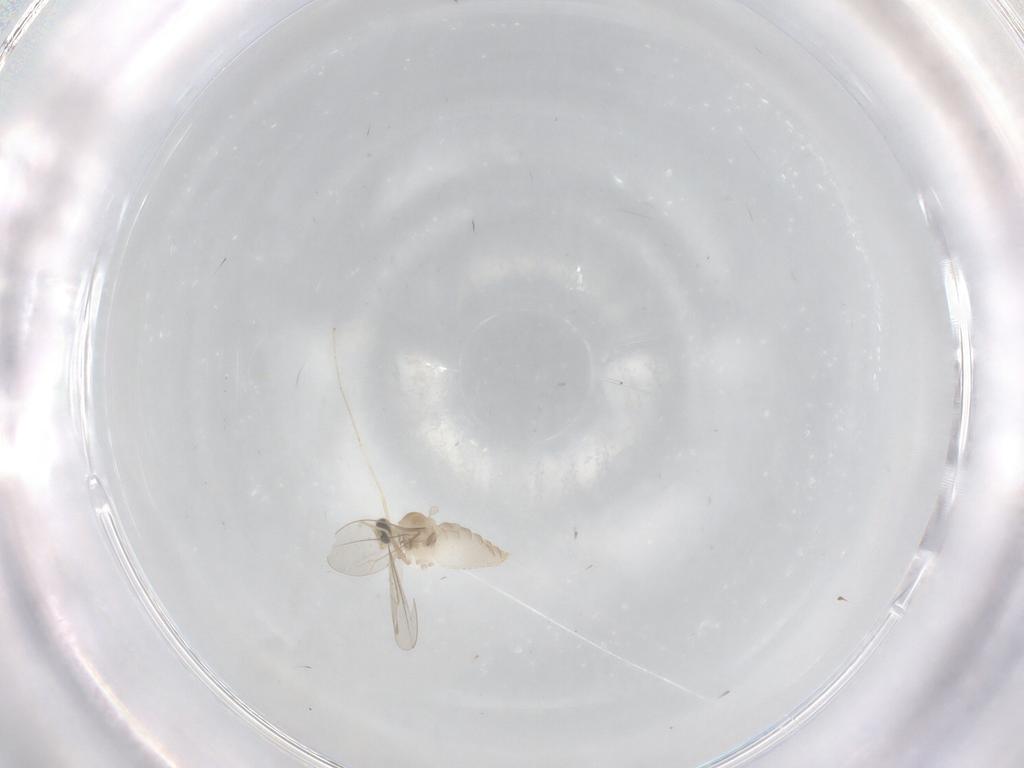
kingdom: Animalia
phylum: Arthropoda
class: Insecta
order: Diptera
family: Cecidomyiidae
